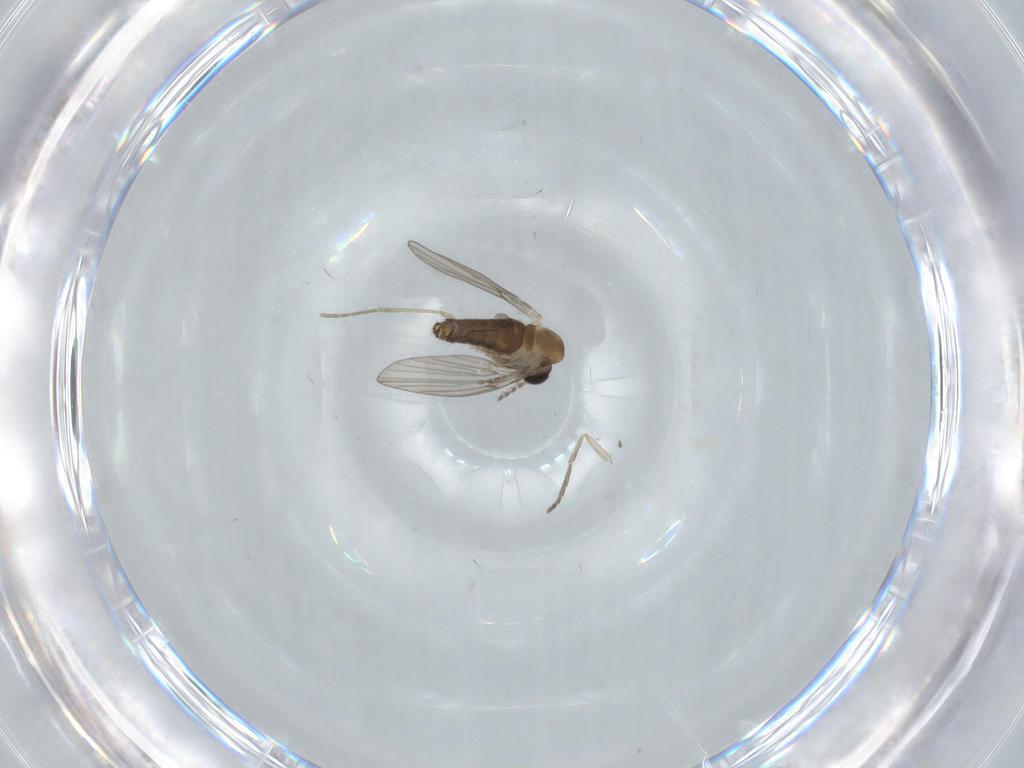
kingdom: Animalia
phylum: Arthropoda
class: Insecta
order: Diptera
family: Psychodidae
